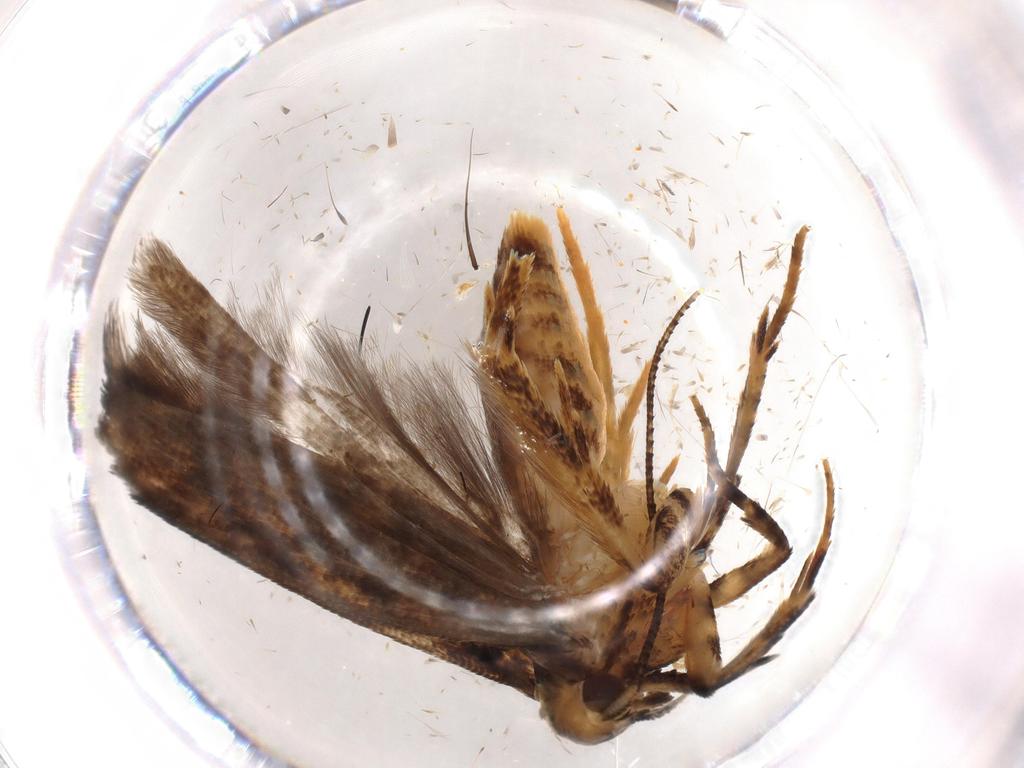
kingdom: Animalia
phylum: Arthropoda
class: Insecta
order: Lepidoptera
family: Gelechiidae
